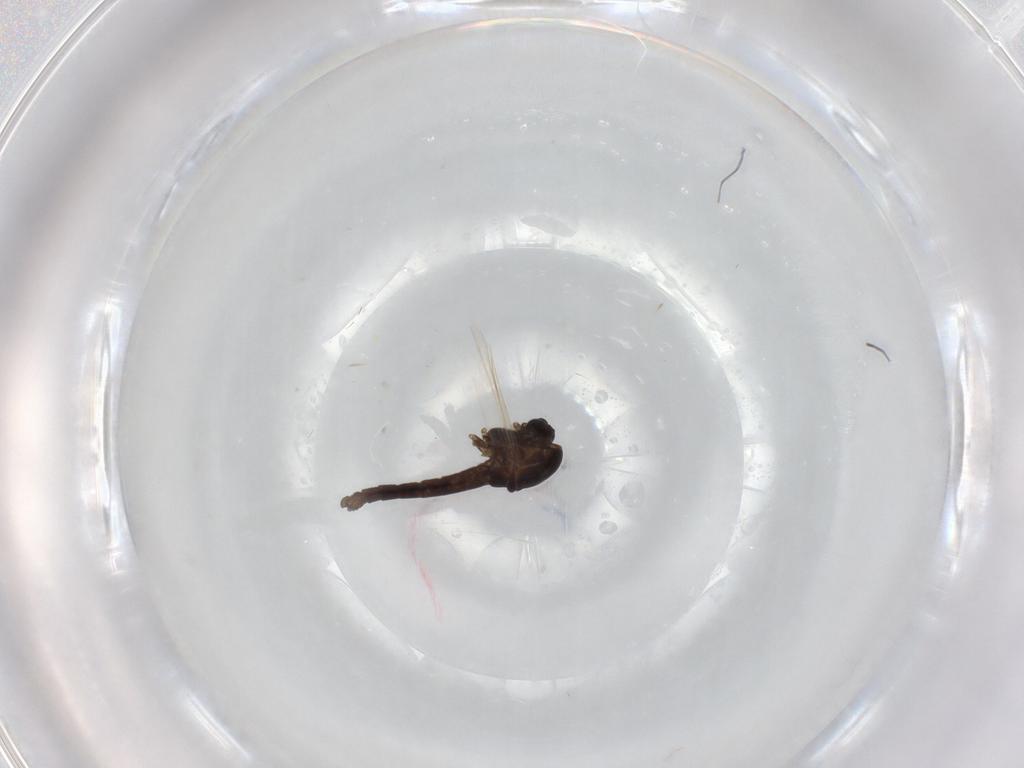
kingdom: Animalia
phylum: Arthropoda
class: Insecta
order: Diptera
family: Chironomidae
